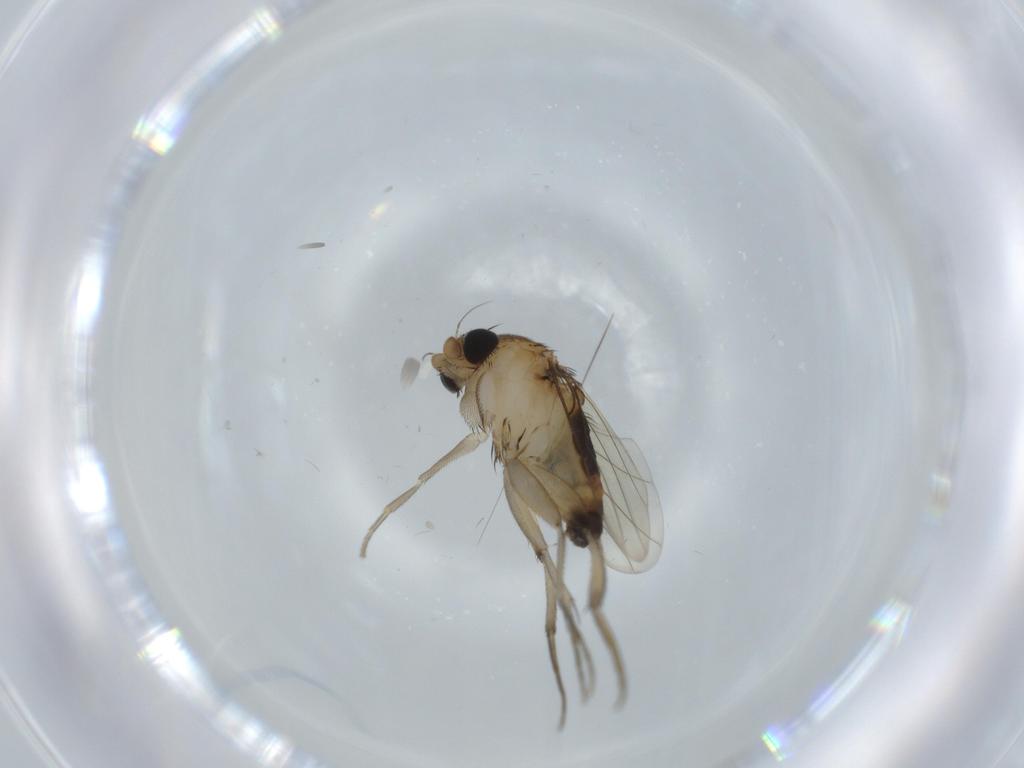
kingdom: Animalia
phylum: Arthropoda
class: Insecta
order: Diptera
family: Phoridae
